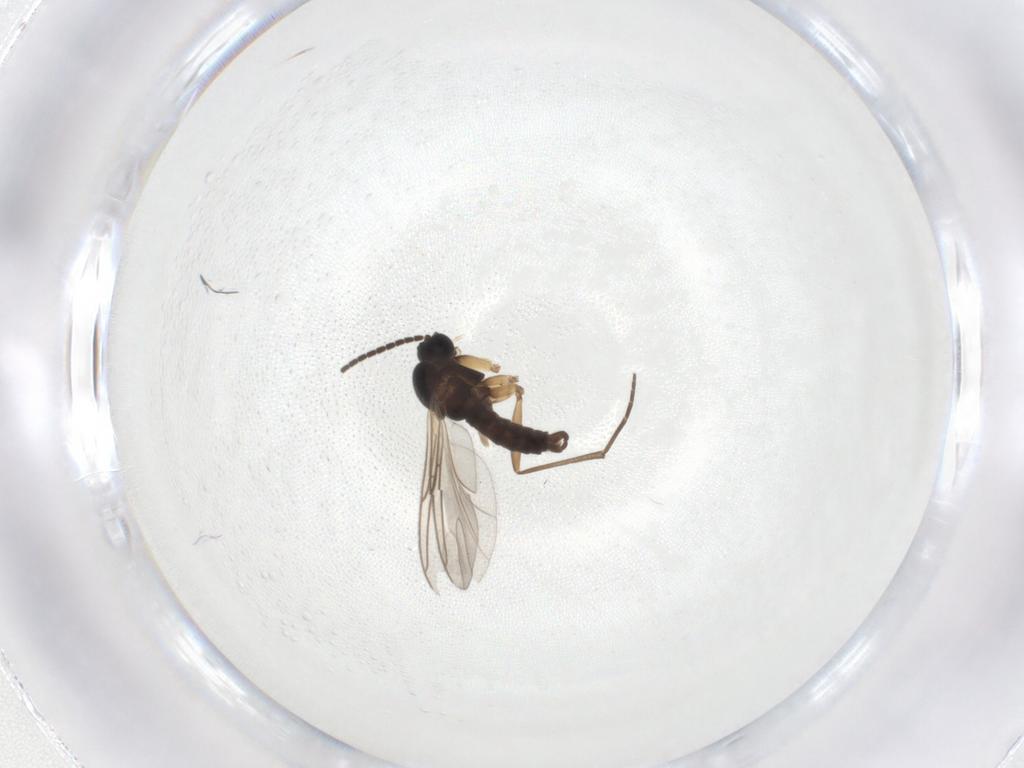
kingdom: Animalia
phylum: Arthropoda
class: Insecta
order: Diptera
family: Sciaridae
